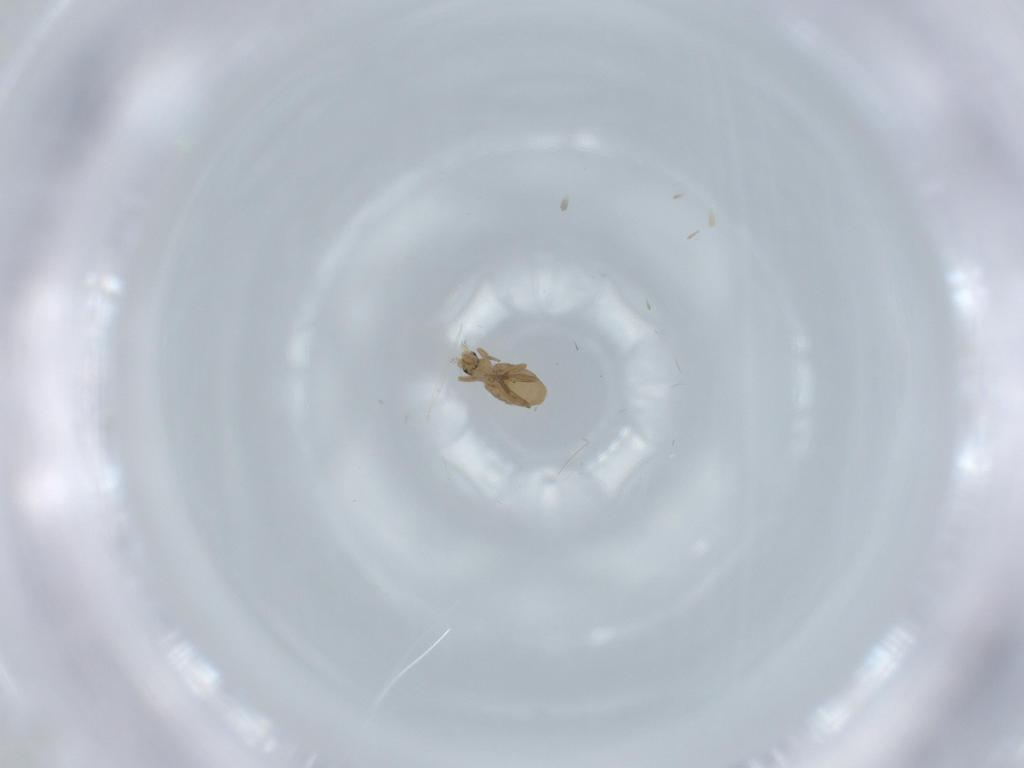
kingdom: Animalia
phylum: Arthropoda
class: Insecta
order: Diptera
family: Phoridae
